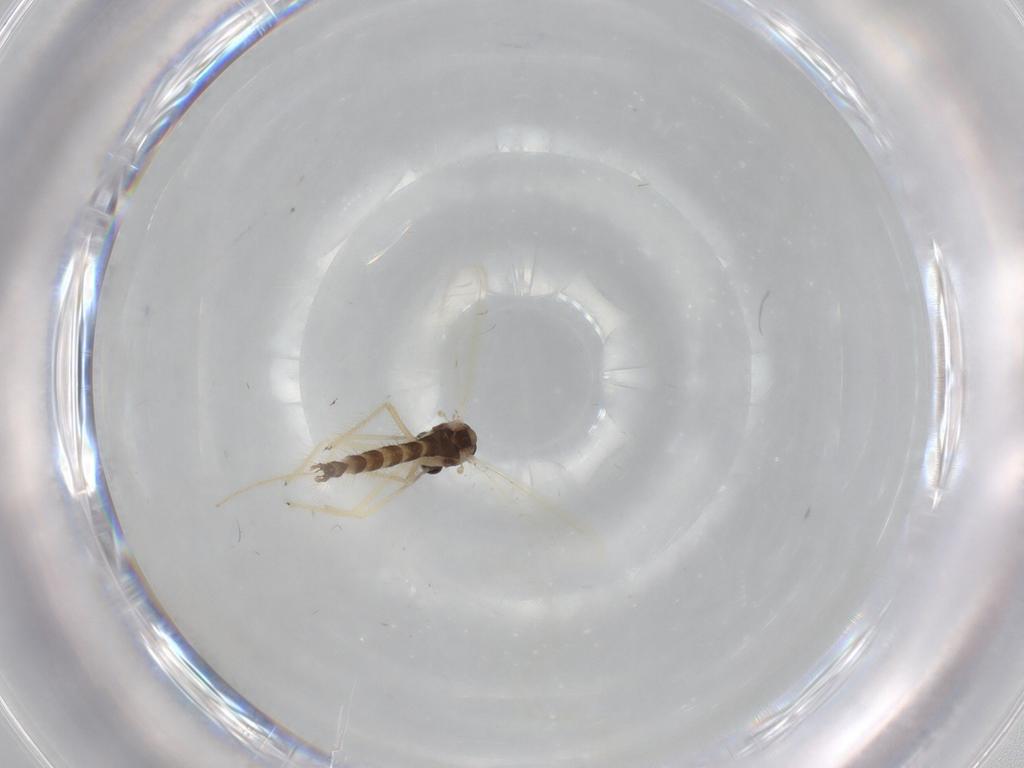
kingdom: Animalia
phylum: Arthropoda
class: Insecta
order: Diptera
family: Chironomidae
